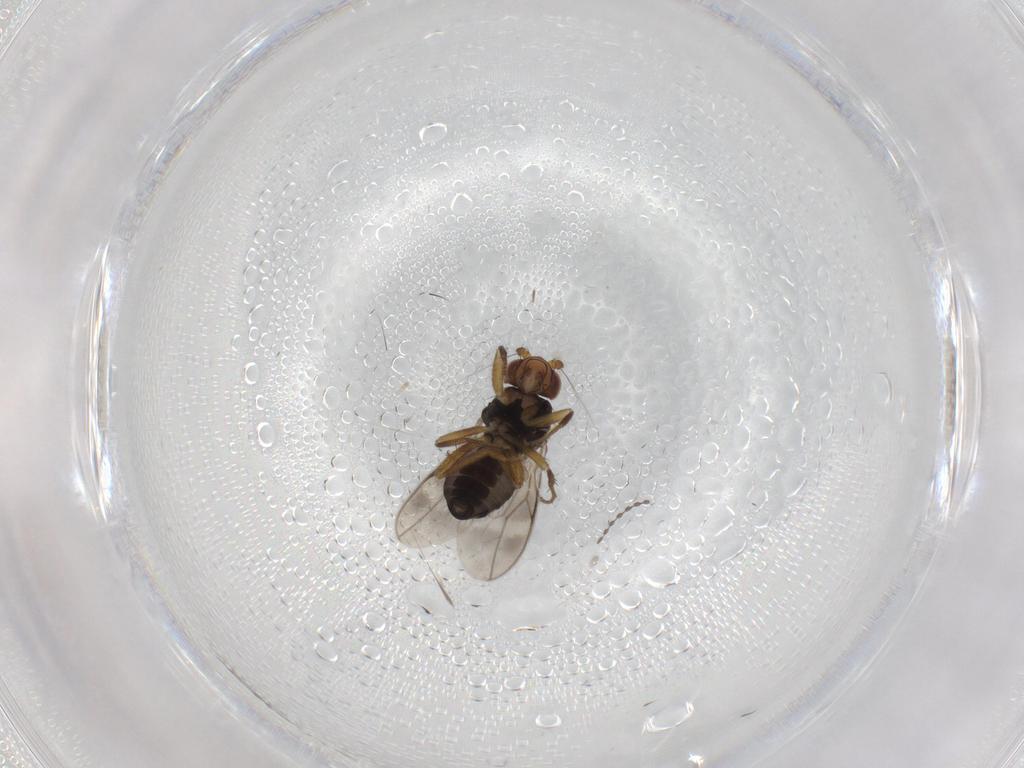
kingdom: Animalia
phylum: Arthropoda
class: Insecta
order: Diptera
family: Sphaeroceridae
